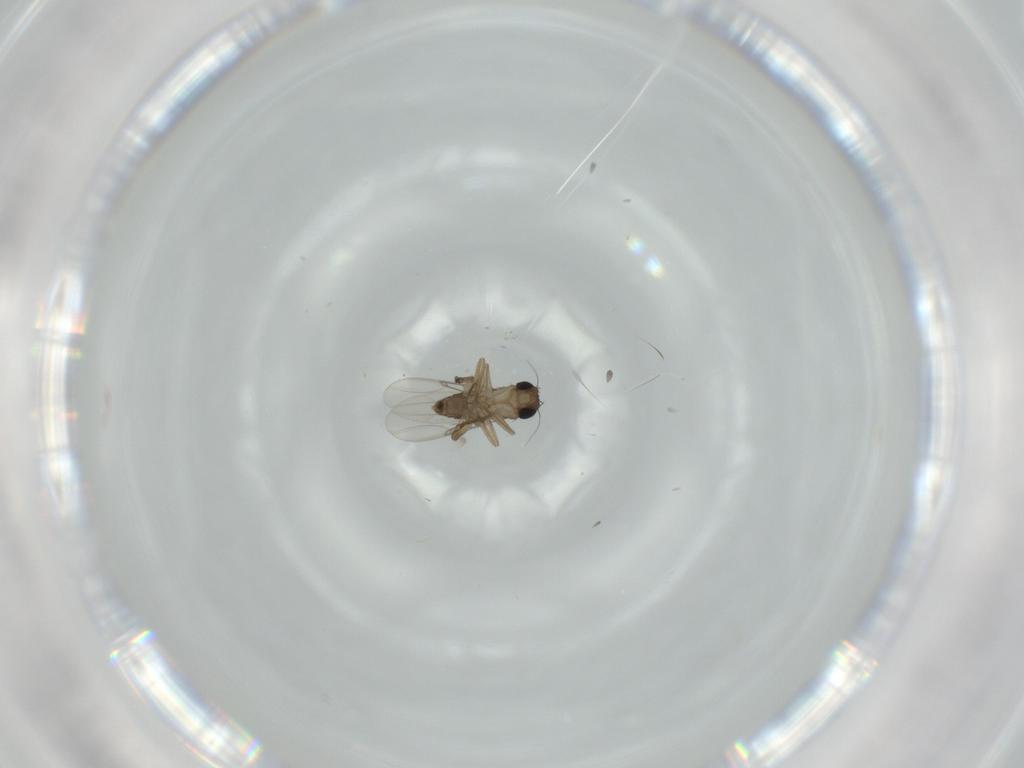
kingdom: Animalia
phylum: Arthropoda
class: Insecta
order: Diptera
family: Phoridae
